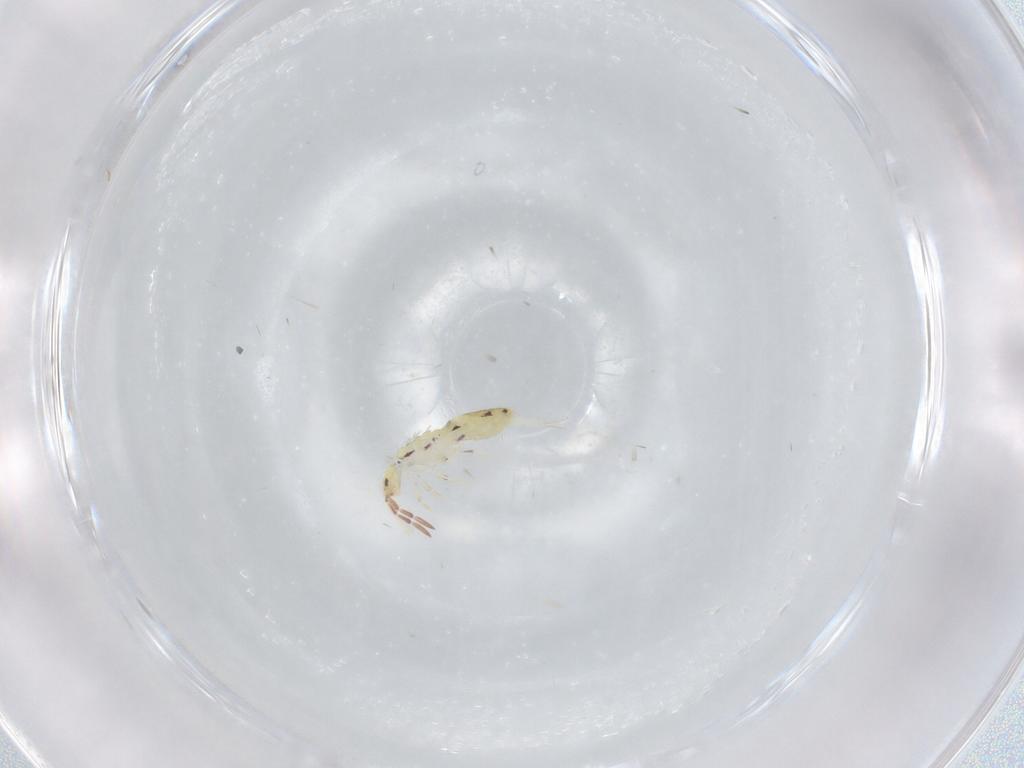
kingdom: Animalia
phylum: Arthropoda
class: Collembola
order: Entomobryomorpha
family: Entomobryidae
